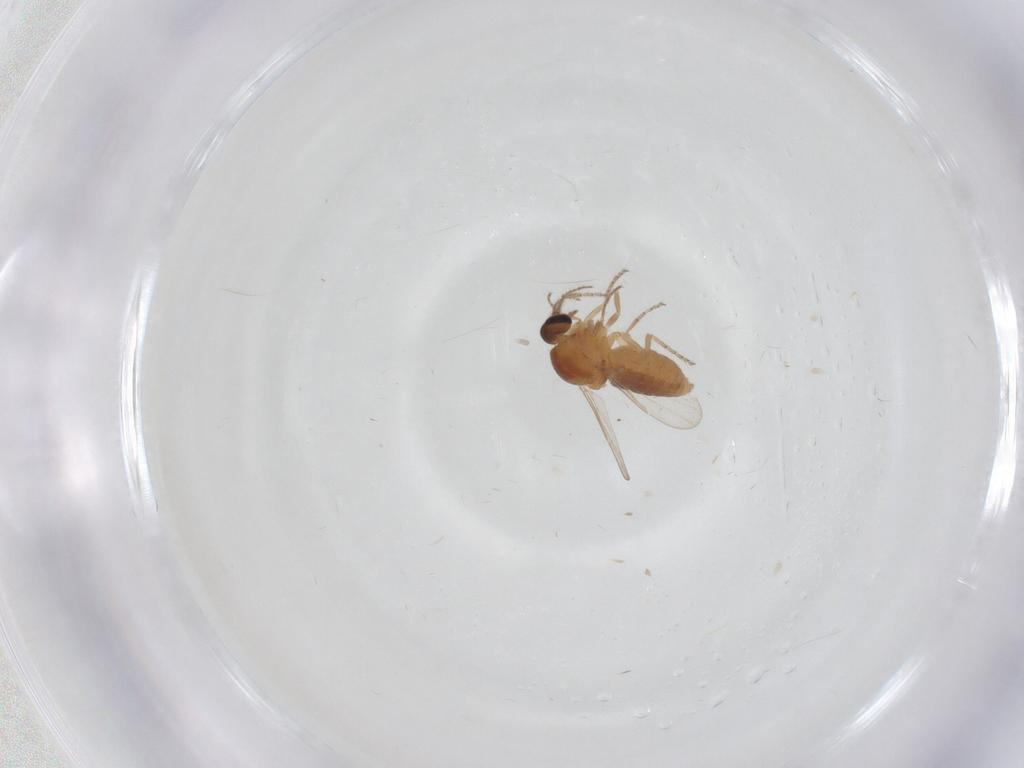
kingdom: Animalia
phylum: Arthropoda
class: Insecta
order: Diptera
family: Ceratopogonidae
